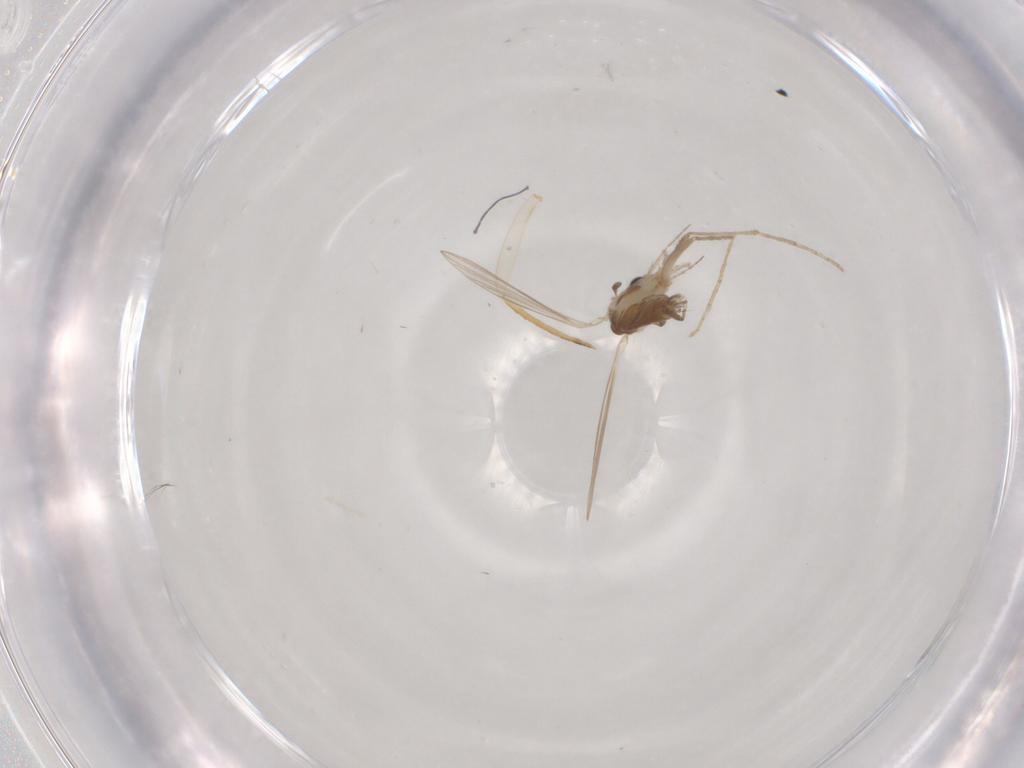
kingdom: Animalia
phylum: Arthropoda
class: Insecta
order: Diptera
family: Psychodidae
